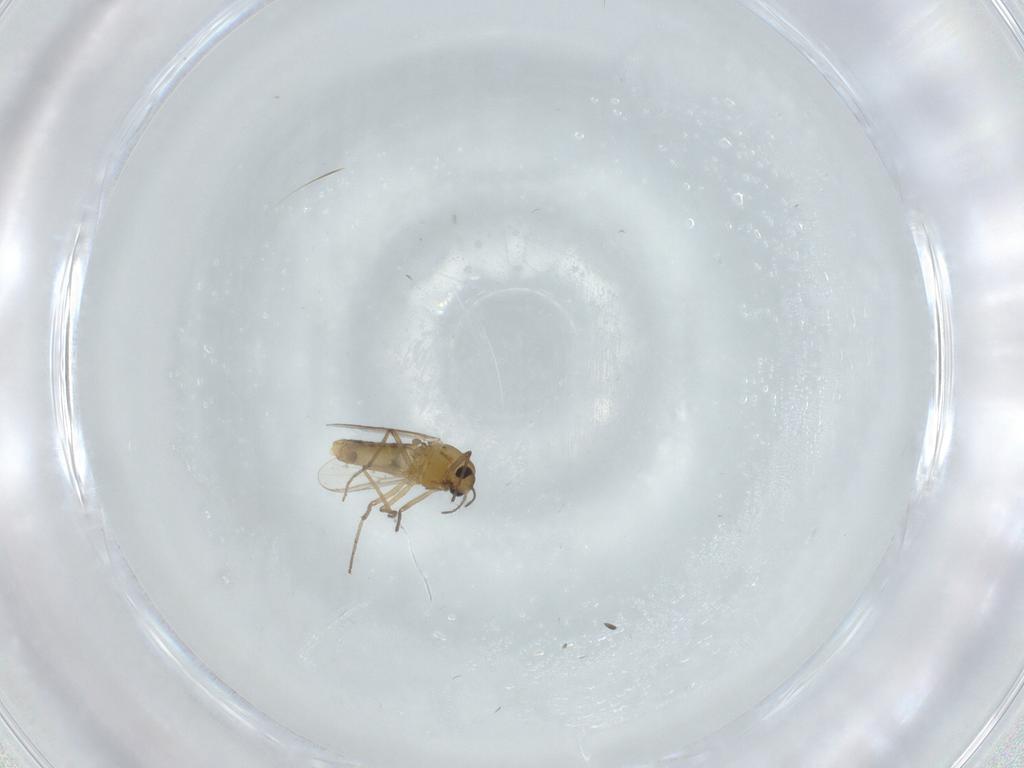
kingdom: Animalia
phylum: Arthropoda
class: Insecta
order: Diptera
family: Chironomidae
